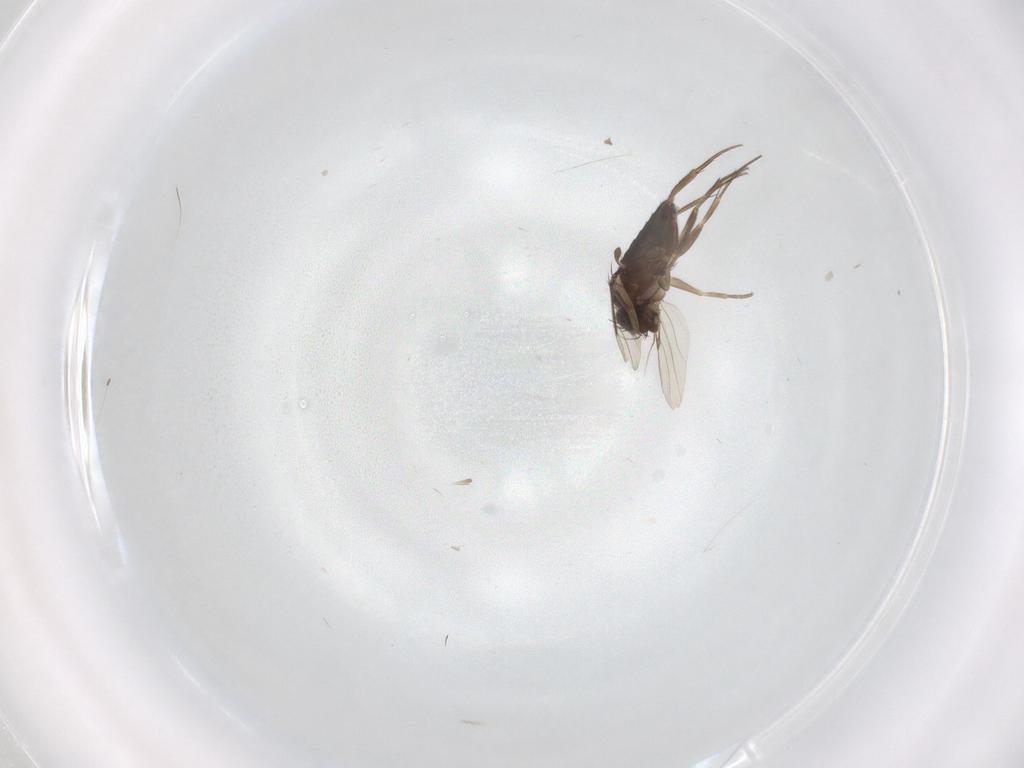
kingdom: Animalia
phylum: Arthropoda
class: Insecta
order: Diptera
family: Phoridae
